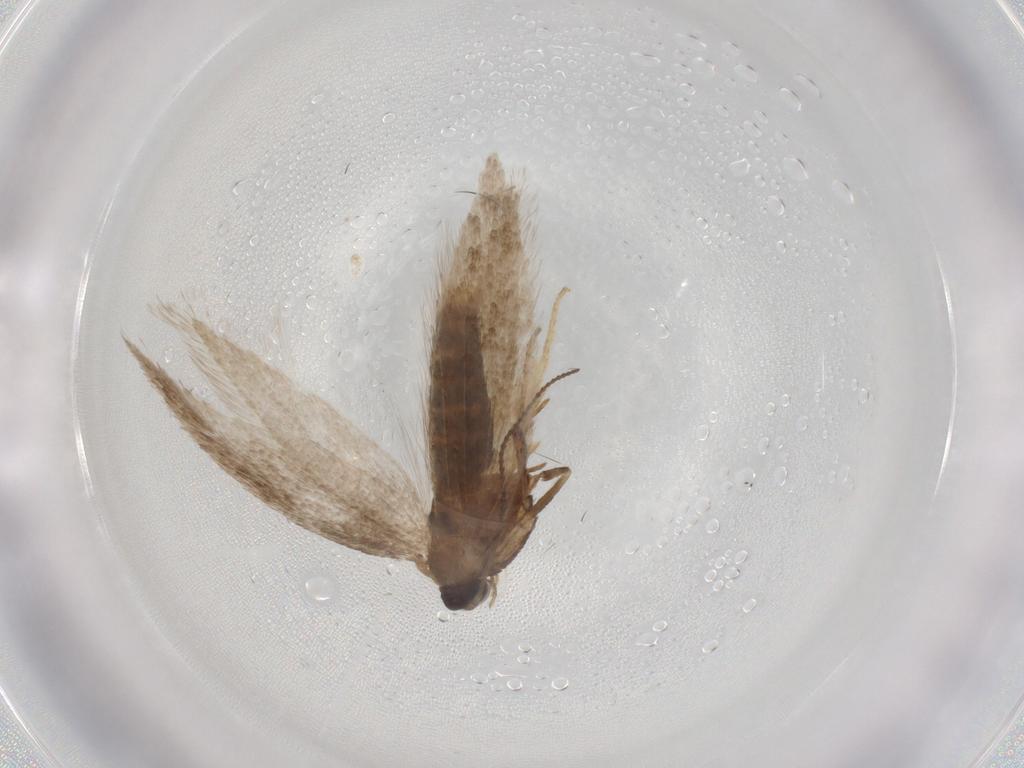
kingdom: Animalia
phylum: Arthropoda
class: Insecta
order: Lepidoptera
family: Nepticulidae
